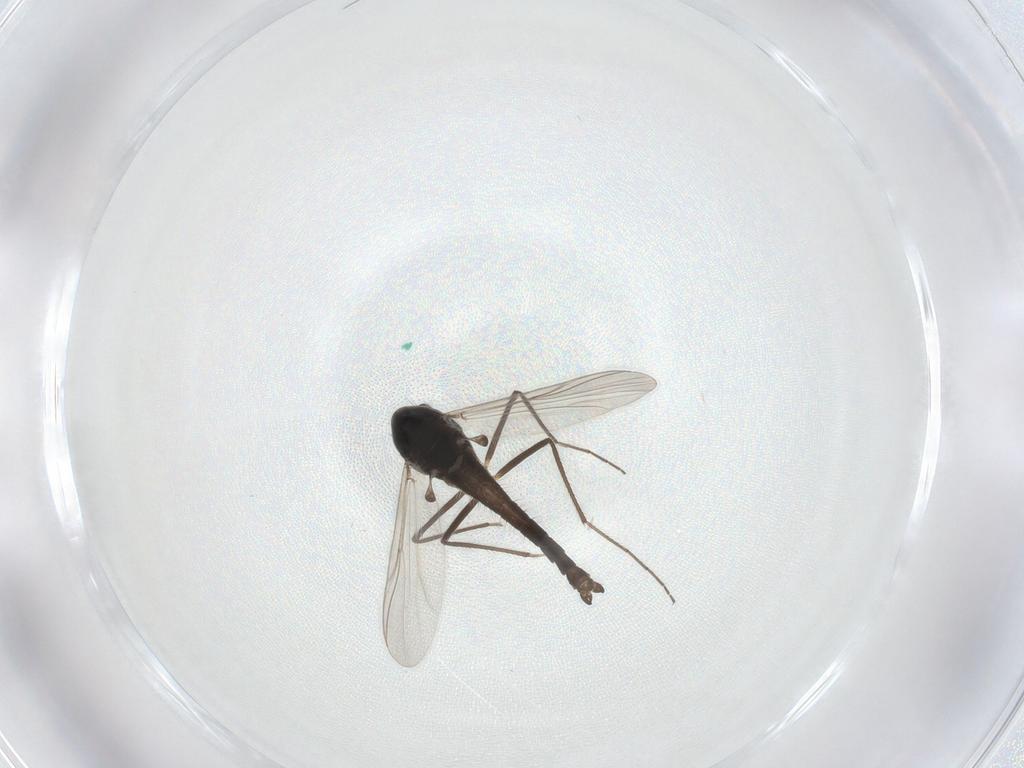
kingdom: Animalia
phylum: Arthropoda
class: Insecta
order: Diptera
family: Chironomidae
